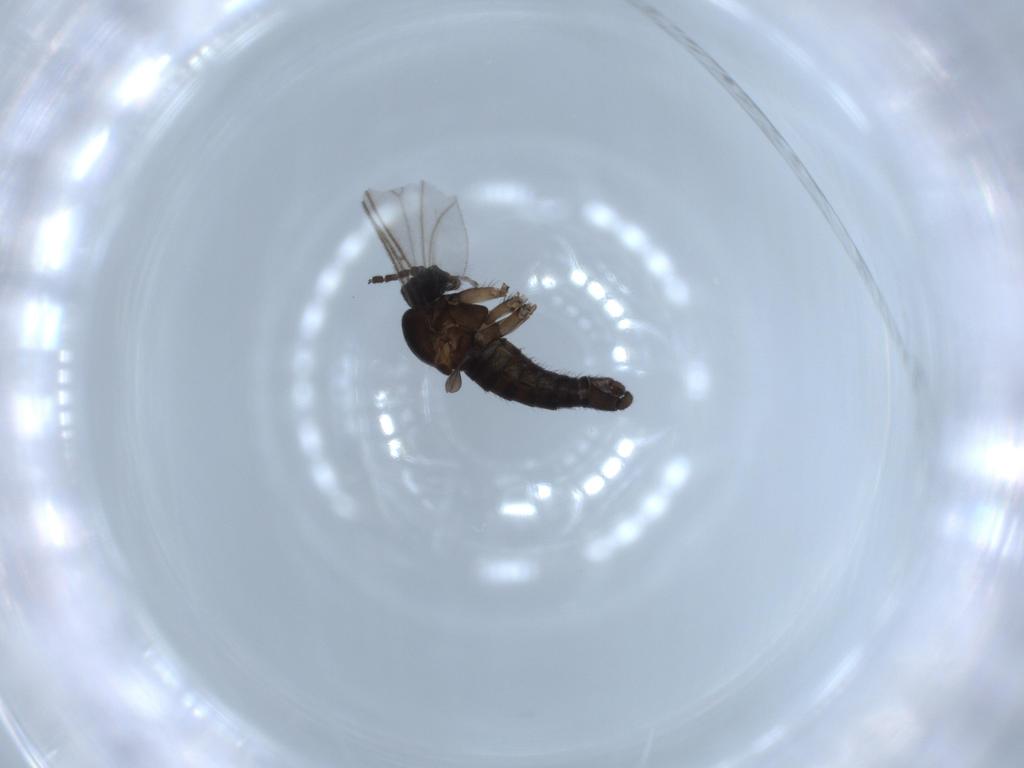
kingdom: Animalia
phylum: Arthropoda
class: Insecta
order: Diptera
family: Sciaridae
